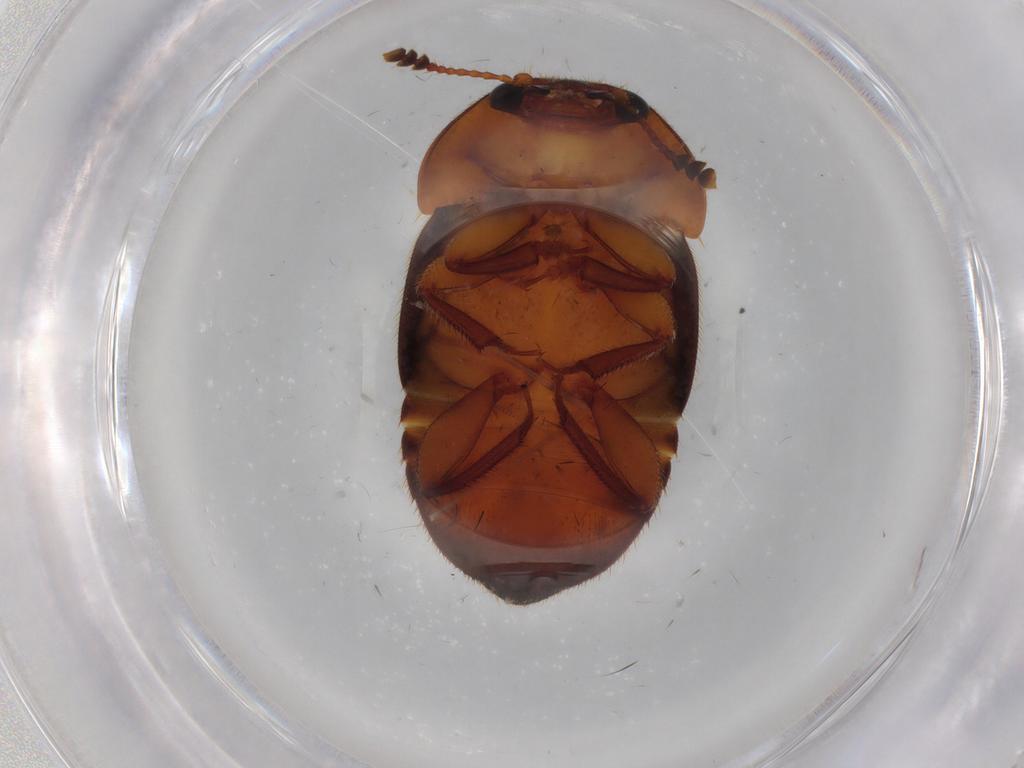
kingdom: Animalia
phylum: Arthropoda
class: Insecta
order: Coleoptera
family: Nitidulidae
